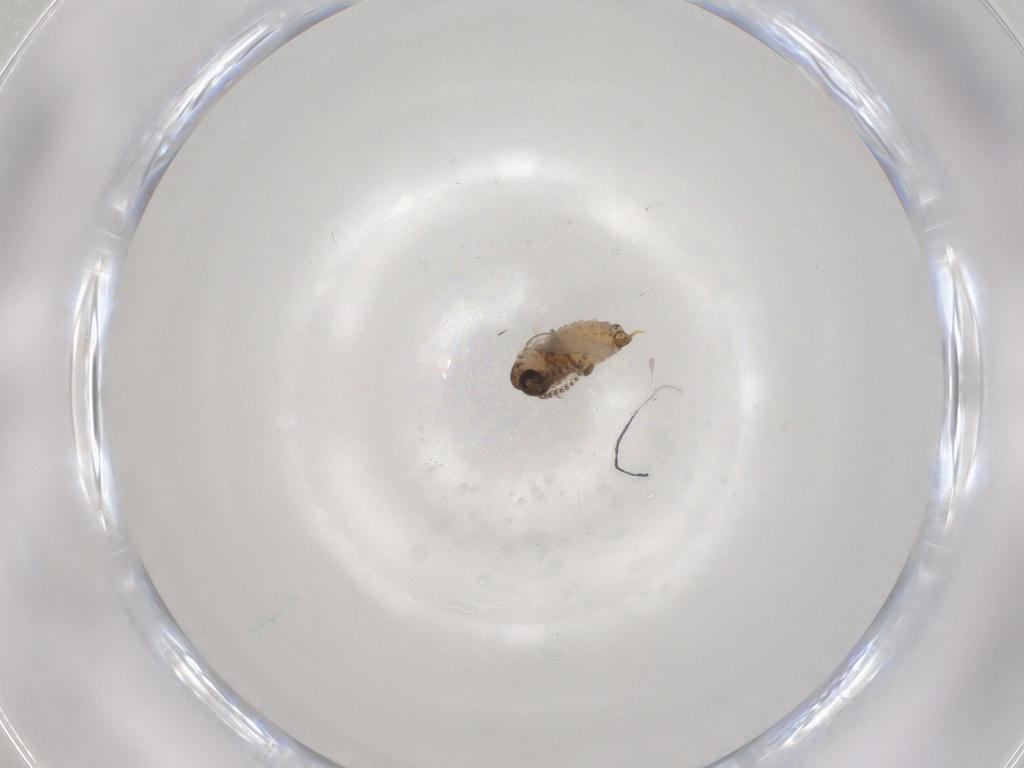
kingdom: Animalia
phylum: Arthropoda
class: Insecta
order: Diptera
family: Psychodidae
